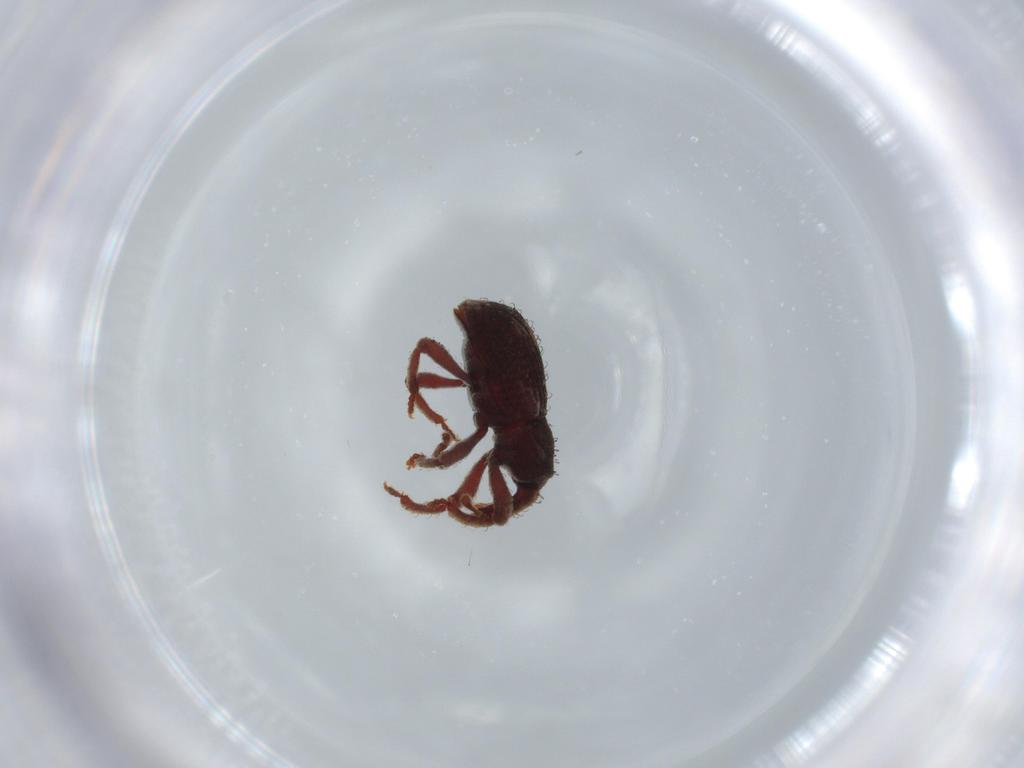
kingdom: Animalia
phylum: Arthropoda
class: Insecta
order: Coleoptera
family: Curculionidae
